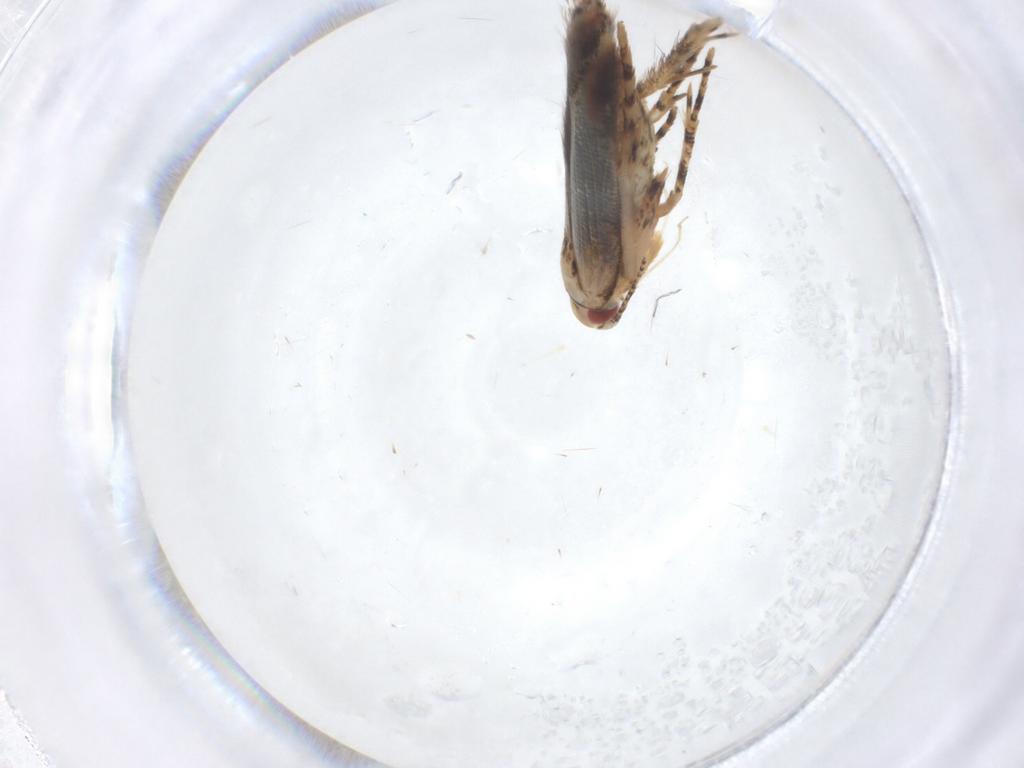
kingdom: Animalia
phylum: Arthropoda
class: Insecta
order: Lepidoptera
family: Cosmopterigidae
